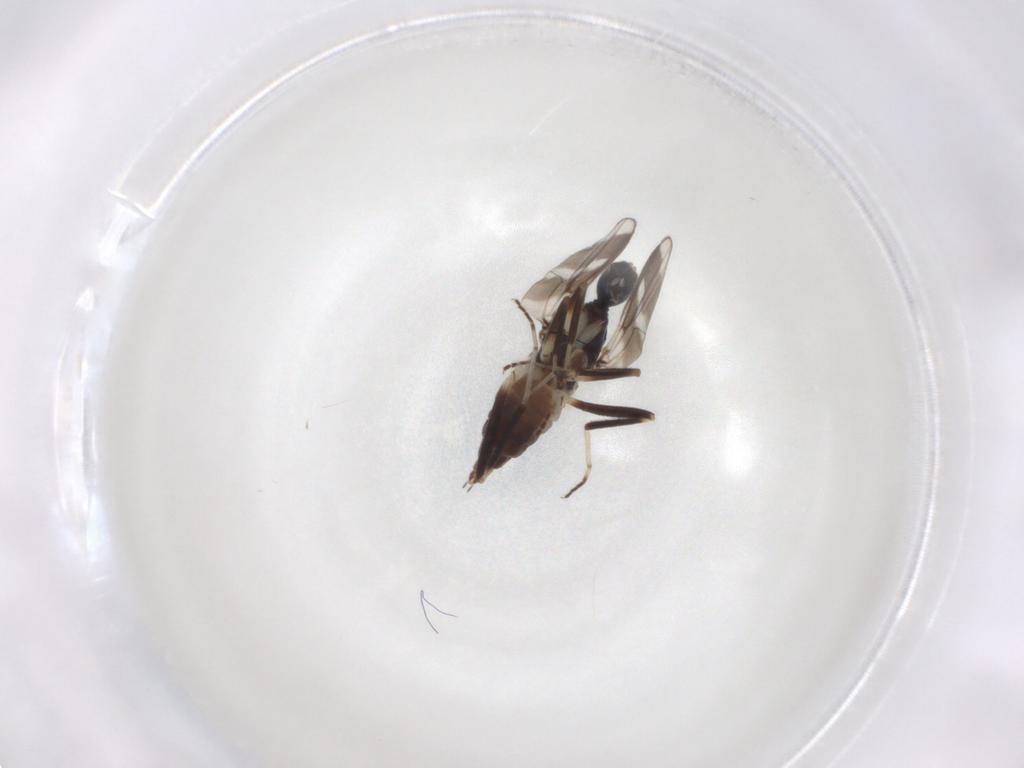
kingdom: Animalia
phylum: Arthropoda
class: Insecta
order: Diptera
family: Hybotidae
